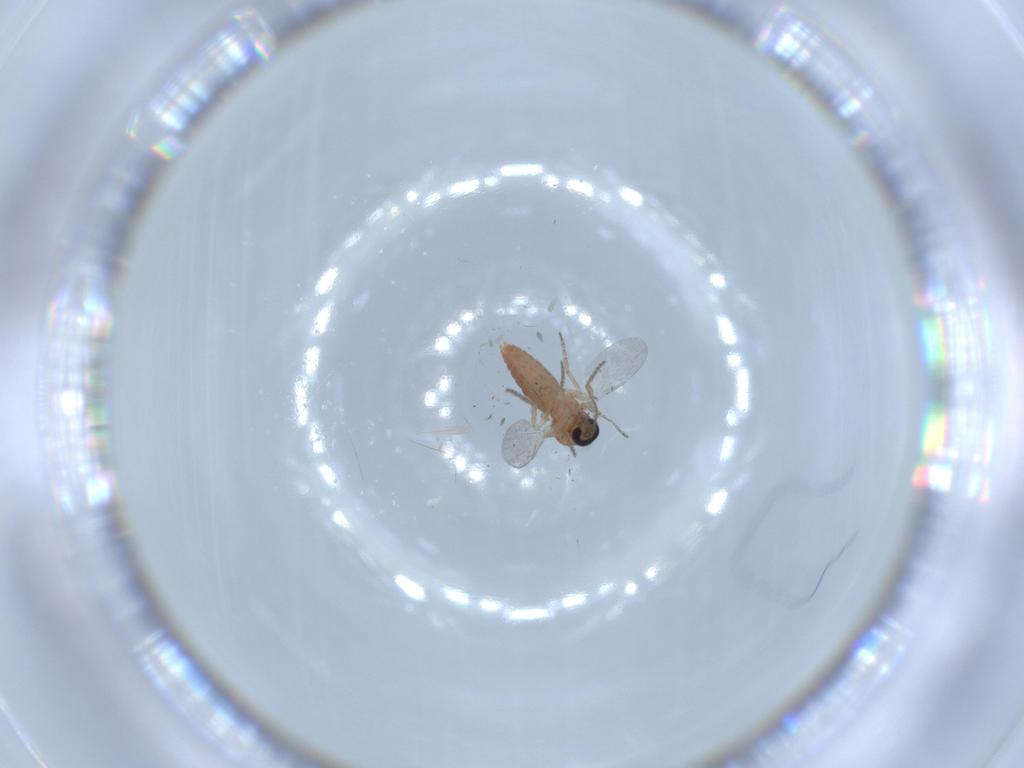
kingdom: Animalia
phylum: Arthropoda
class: Insecta
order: Diptera
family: Ceratopogonidae
